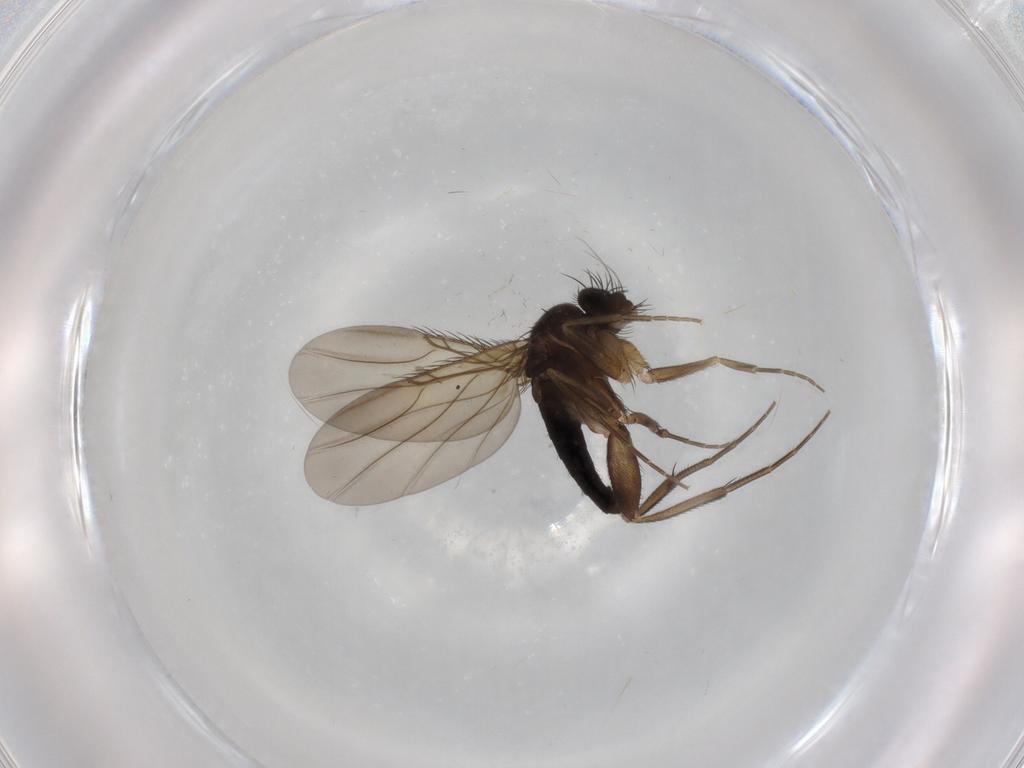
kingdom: Animalia
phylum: Arthropoda
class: Insecta
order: Diptera
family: Phoridae
